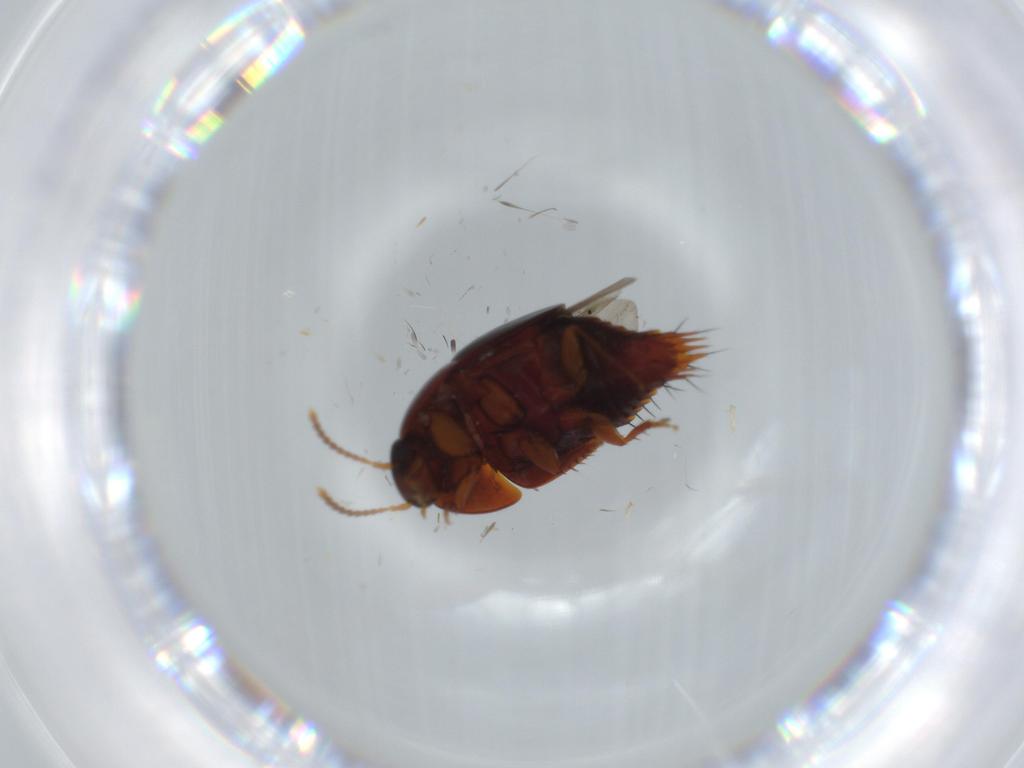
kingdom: Animalia
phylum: Arthropoda
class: Insecta
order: Coleoptera
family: Staphylinidae
